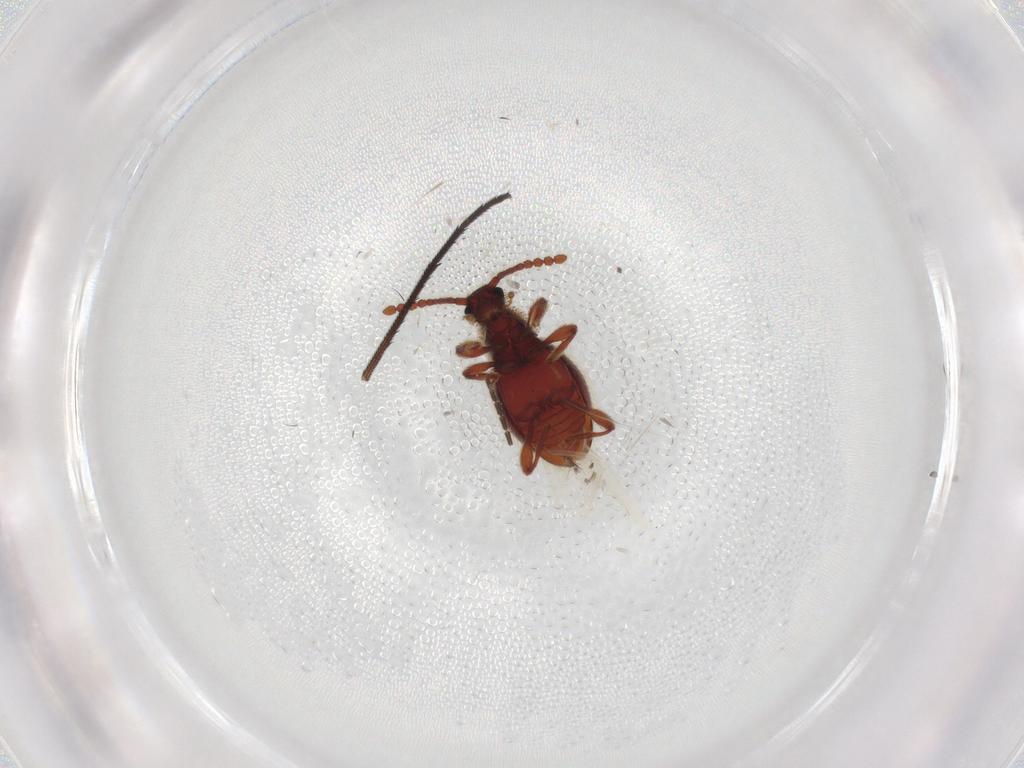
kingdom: Animalia
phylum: Arthropoda
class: Insecta
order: Coleoptera
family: Staphylinidae
